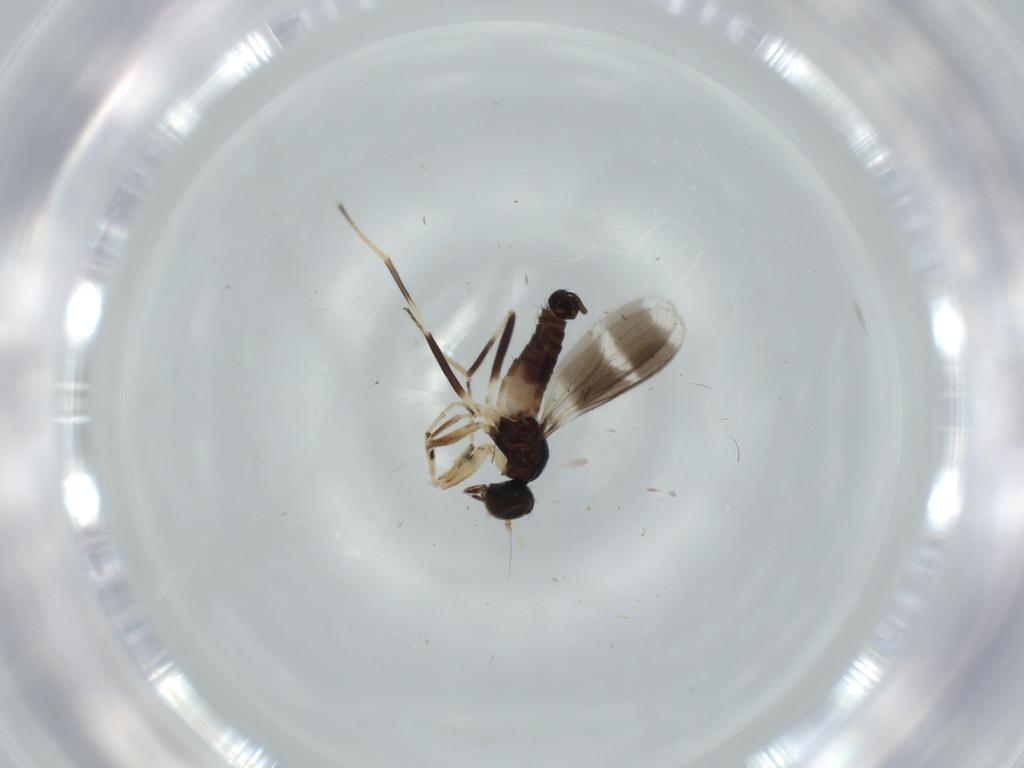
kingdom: Animalia
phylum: Arthropoda
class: Insecta
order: Diptera
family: Hybotidae
